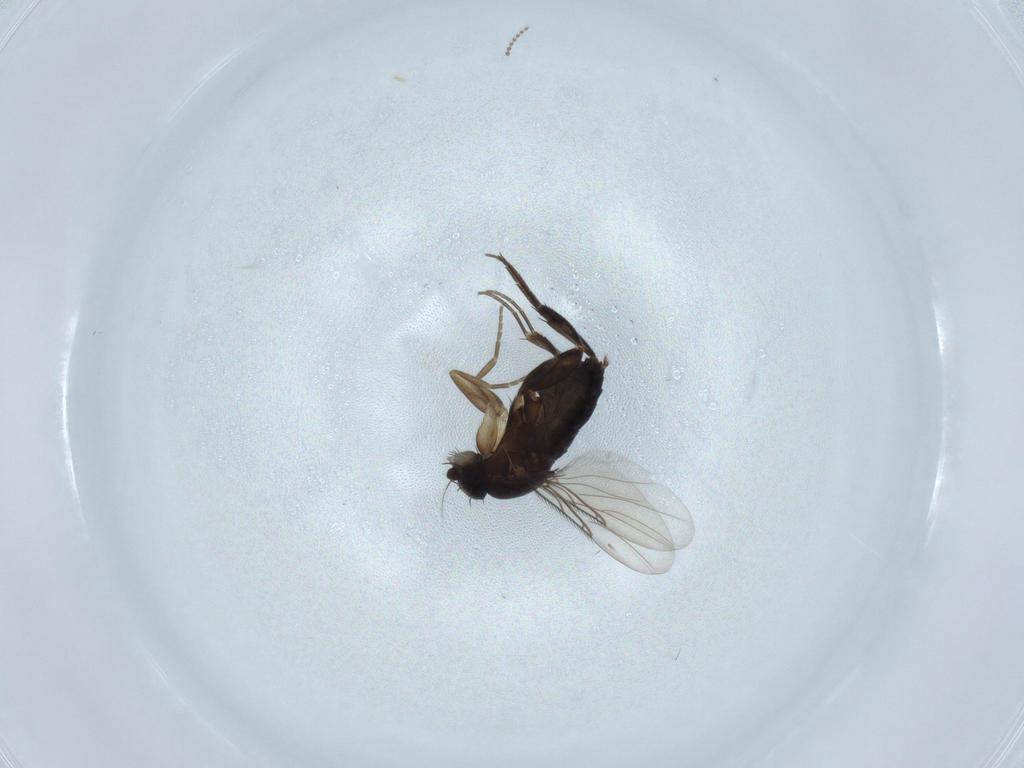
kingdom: Animalia
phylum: Arthropoda
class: Insecta
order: Diptera
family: Phoridae
